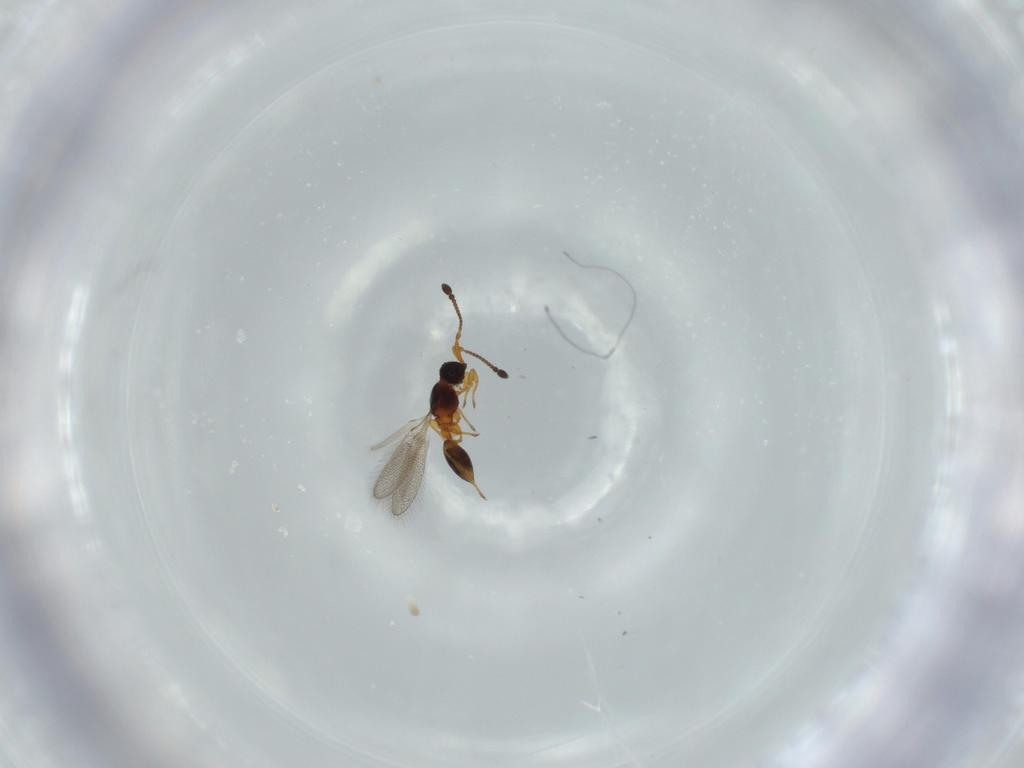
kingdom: Animalia
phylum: Arthropoda
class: Insecta
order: Hymenoptera
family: Diapriidae
